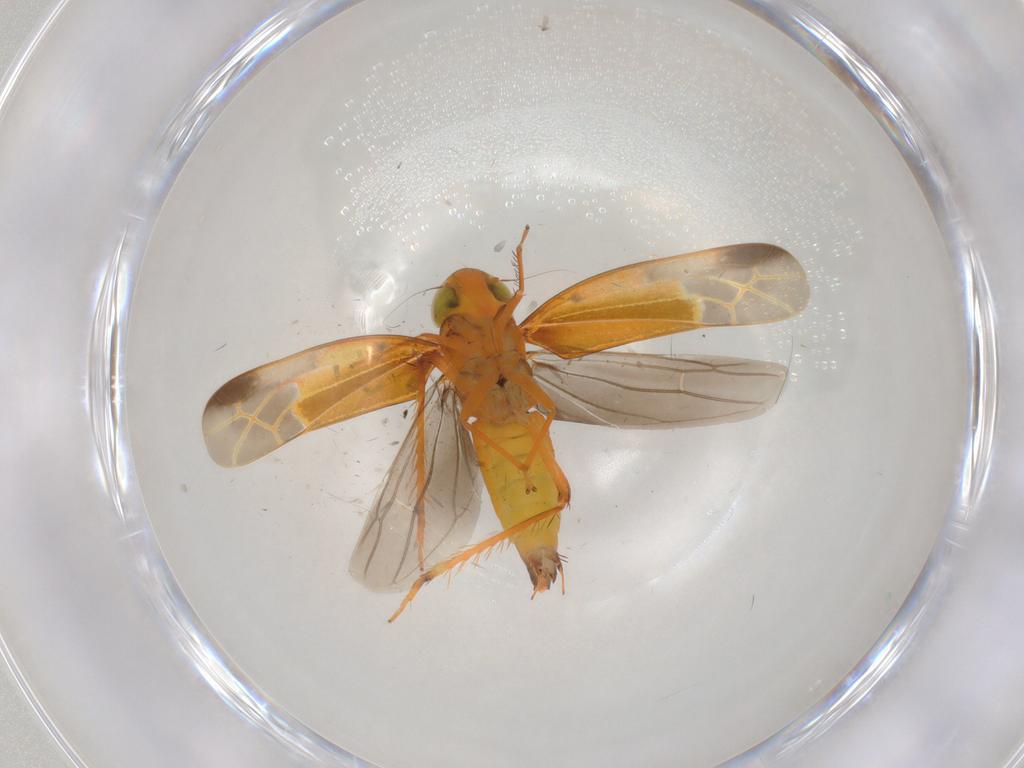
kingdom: Animalia
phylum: Arthropoda
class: Insecta
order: Hemiptera
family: Cicadellidae
